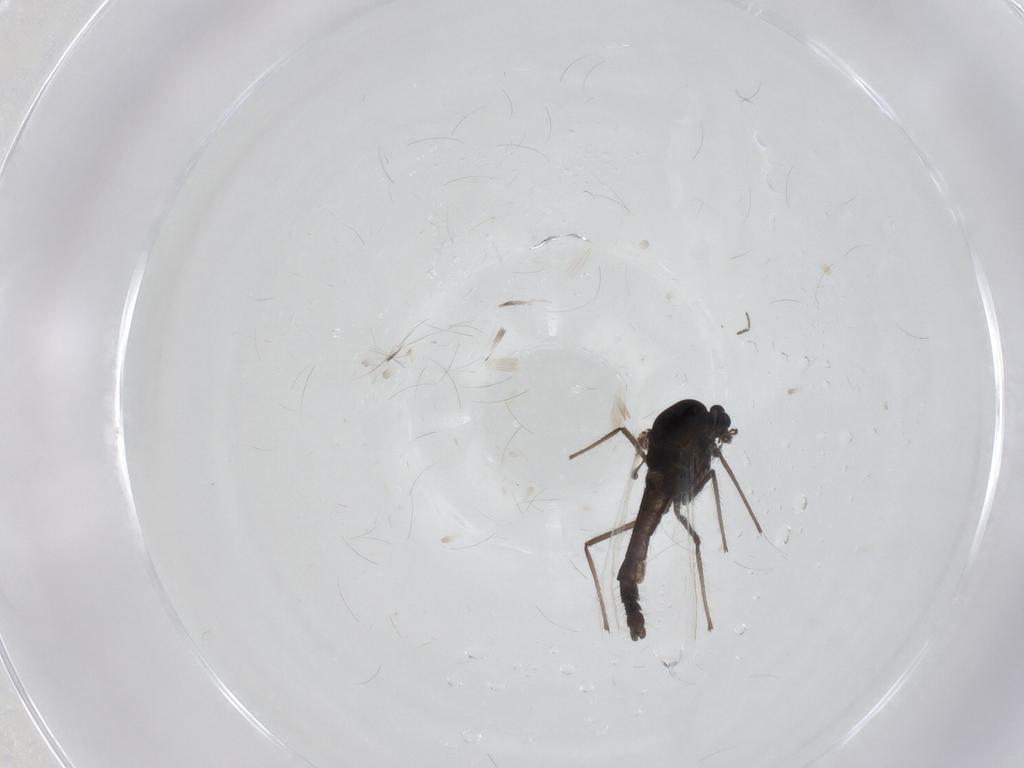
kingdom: Animalia
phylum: Arthropoda
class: Insecta
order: Diptera
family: Chironomidae
